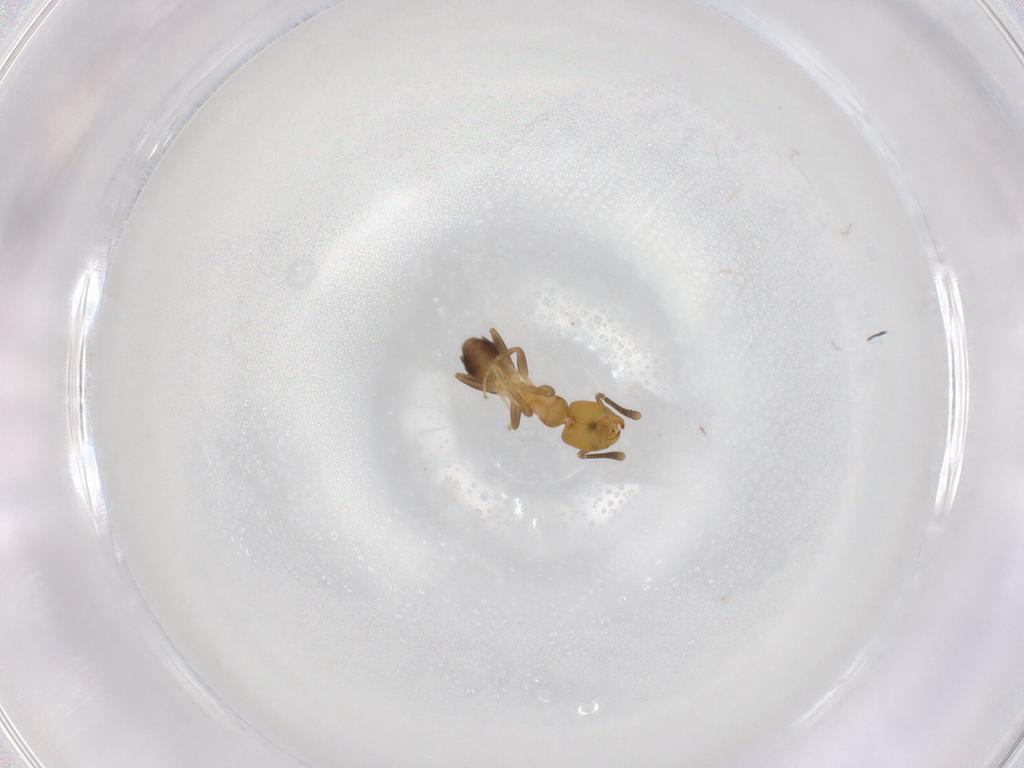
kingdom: Animalia
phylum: Arthropoda
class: Insecta
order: Hymenoptera
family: Formicidae
